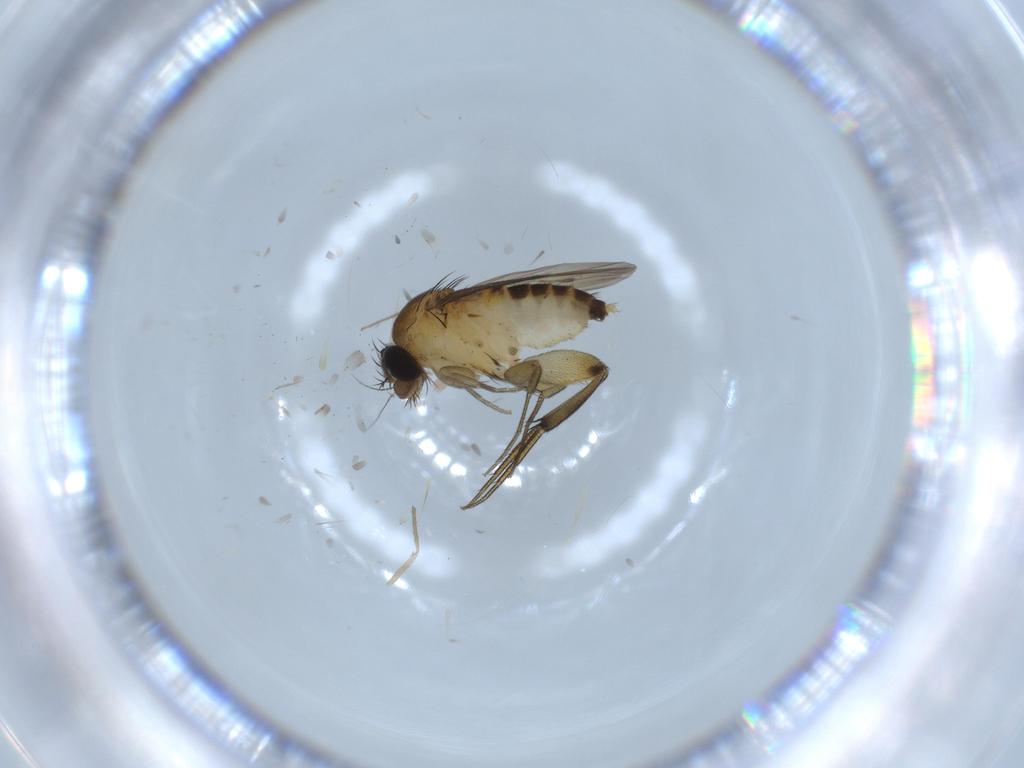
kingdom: Animalia
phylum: Arthropoda
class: Insecta
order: Diptera
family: Phoridae
